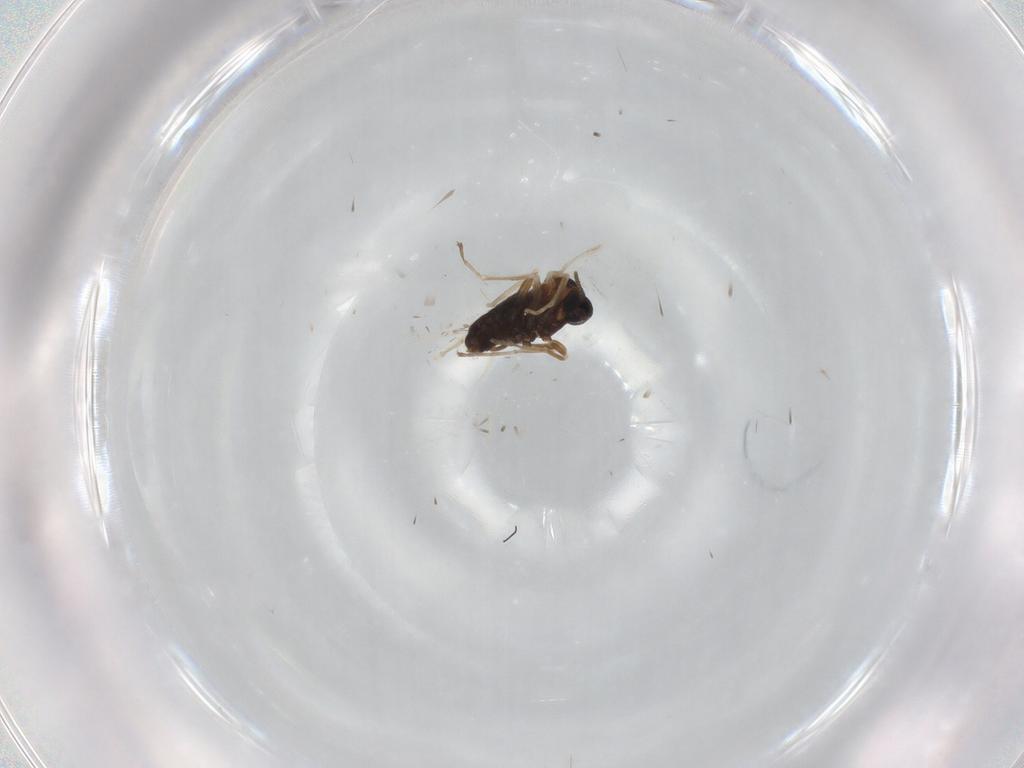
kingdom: Animalia
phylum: Arthropoda
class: Insecta
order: Diptera
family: Cecidomyiidae
